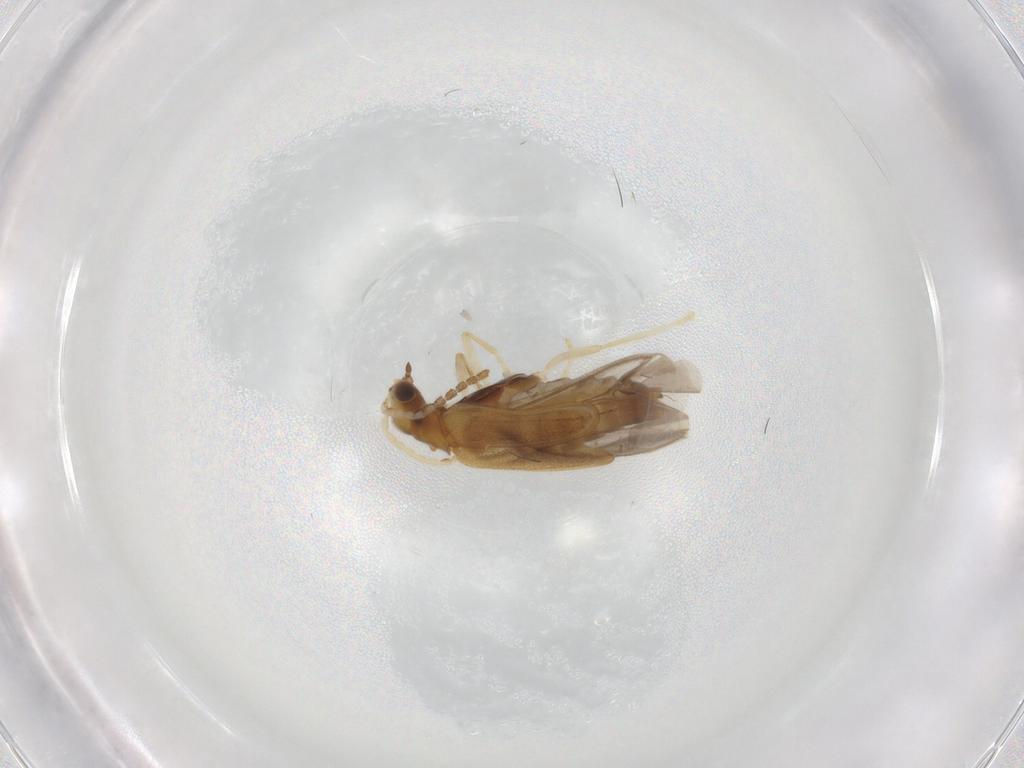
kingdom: Animalia
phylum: Arthropoda
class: Insecta
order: Coleoptera
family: Cantharidae
